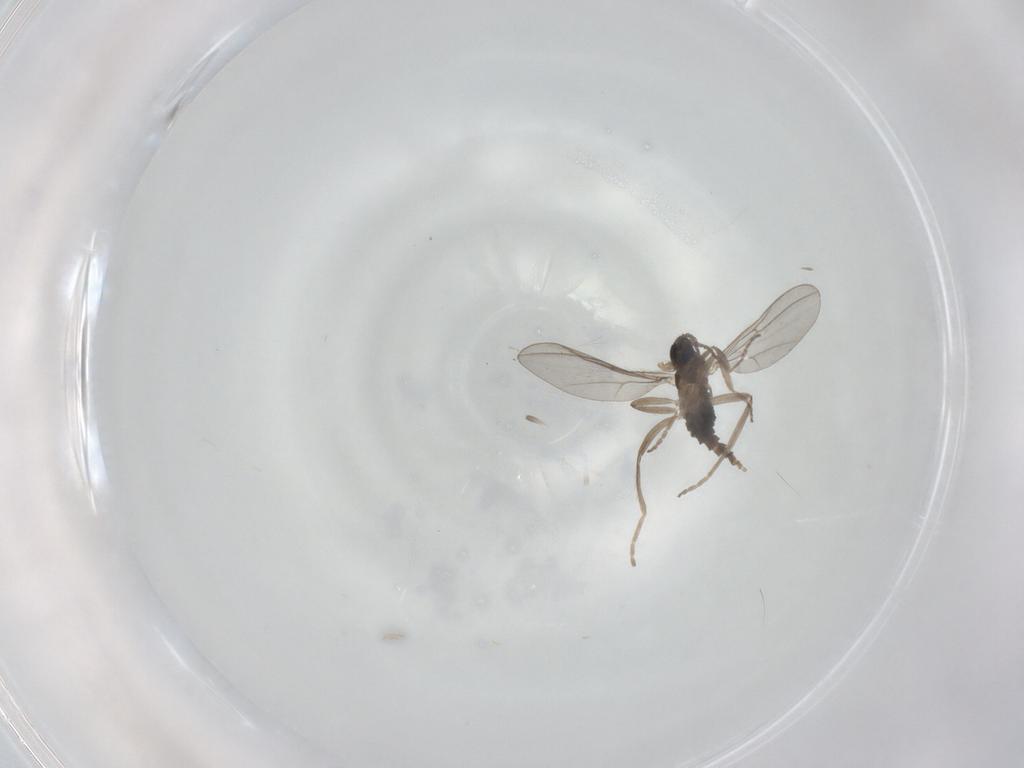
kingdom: Animalia
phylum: Arthropoda
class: Insecta
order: Diptera
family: Cecidomyiidae
